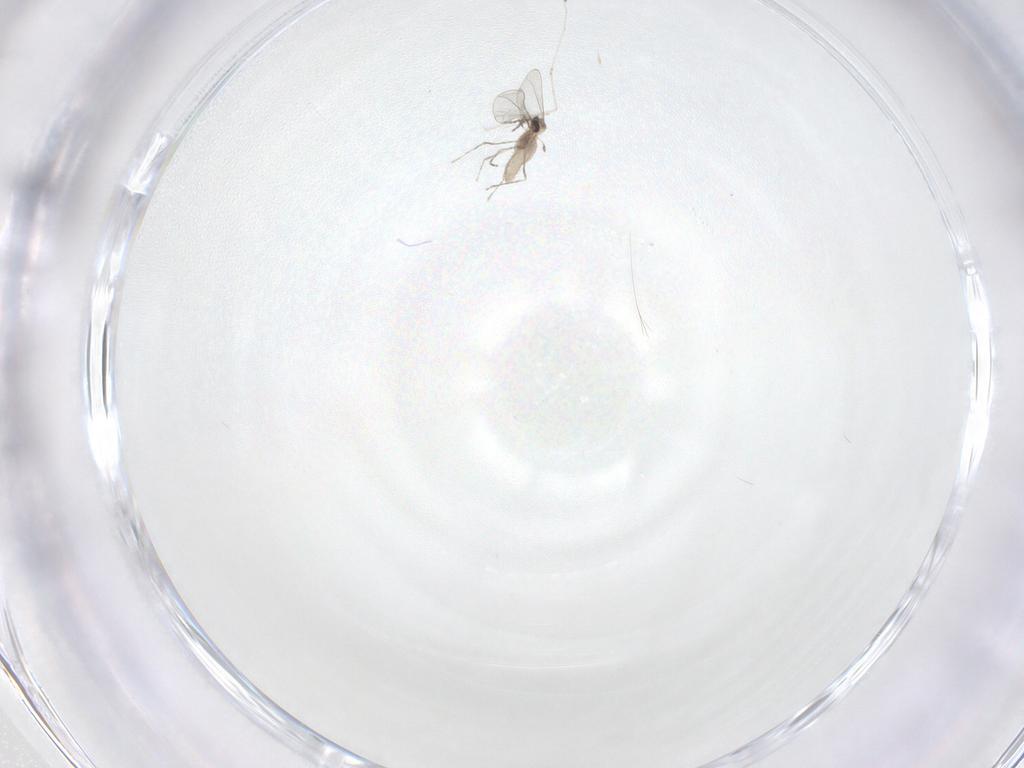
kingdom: Animalia
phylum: Arthropoda
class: Insecta
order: Diptera
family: Cecidomyiidae
